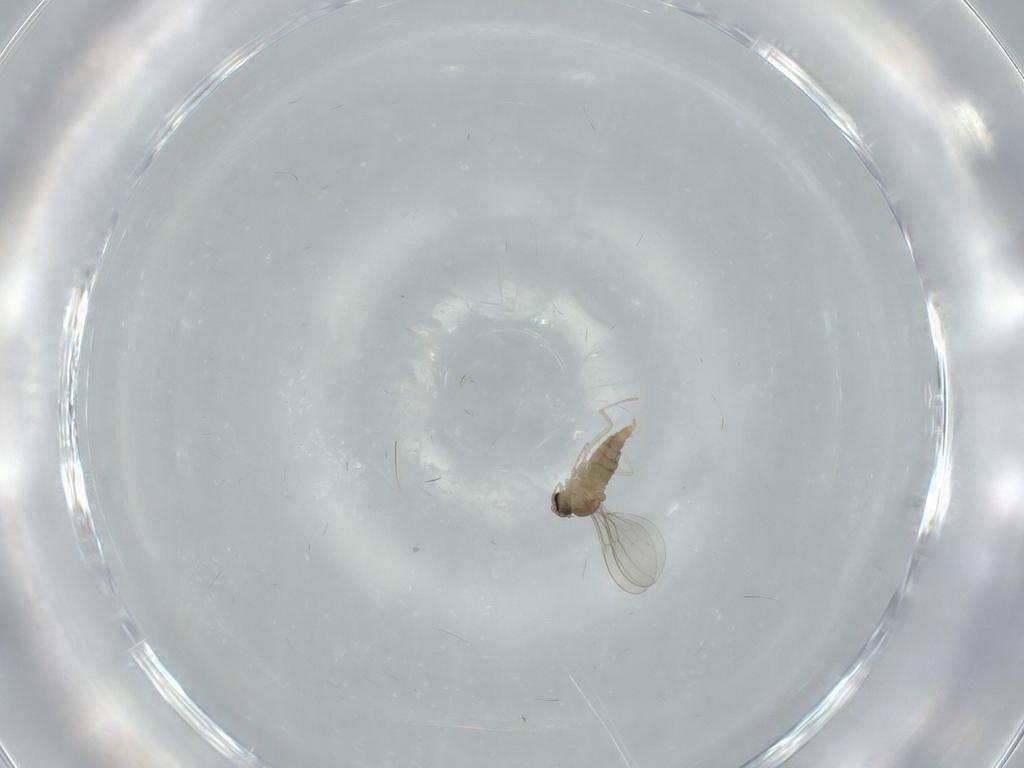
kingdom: Animalia
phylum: Arthropoda
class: Insecta
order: Diptera
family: Cecidomyiidae
